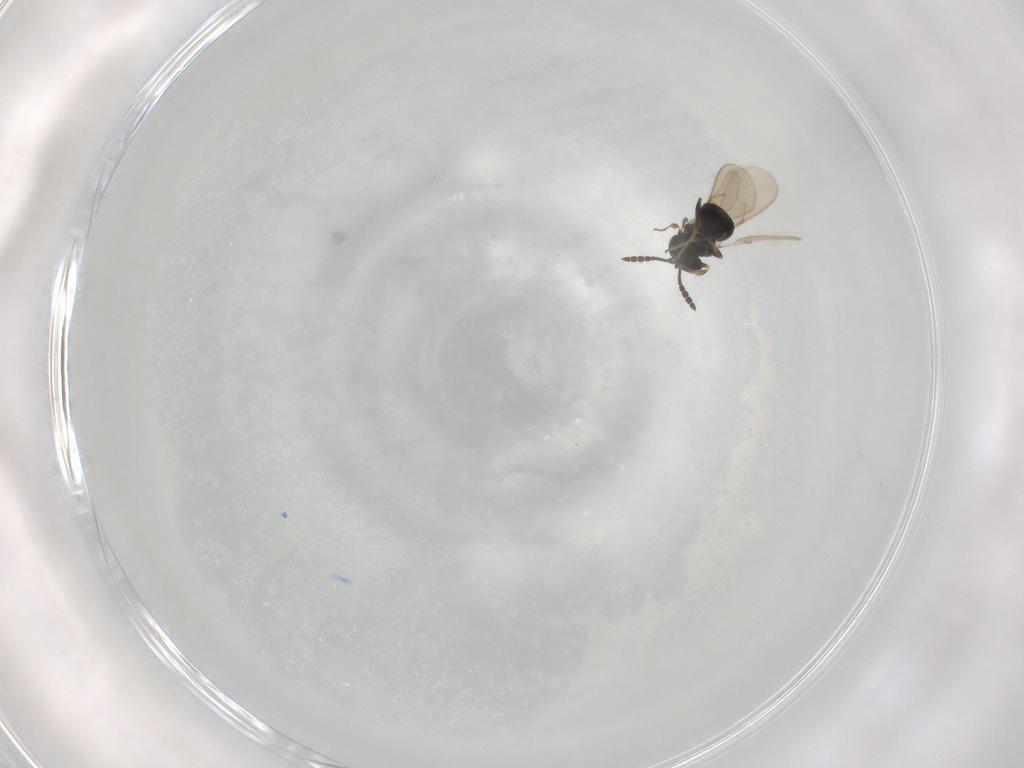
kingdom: Animalia
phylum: Arthropoda
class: Insecta
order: Hymenoptera
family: Scelionidae
